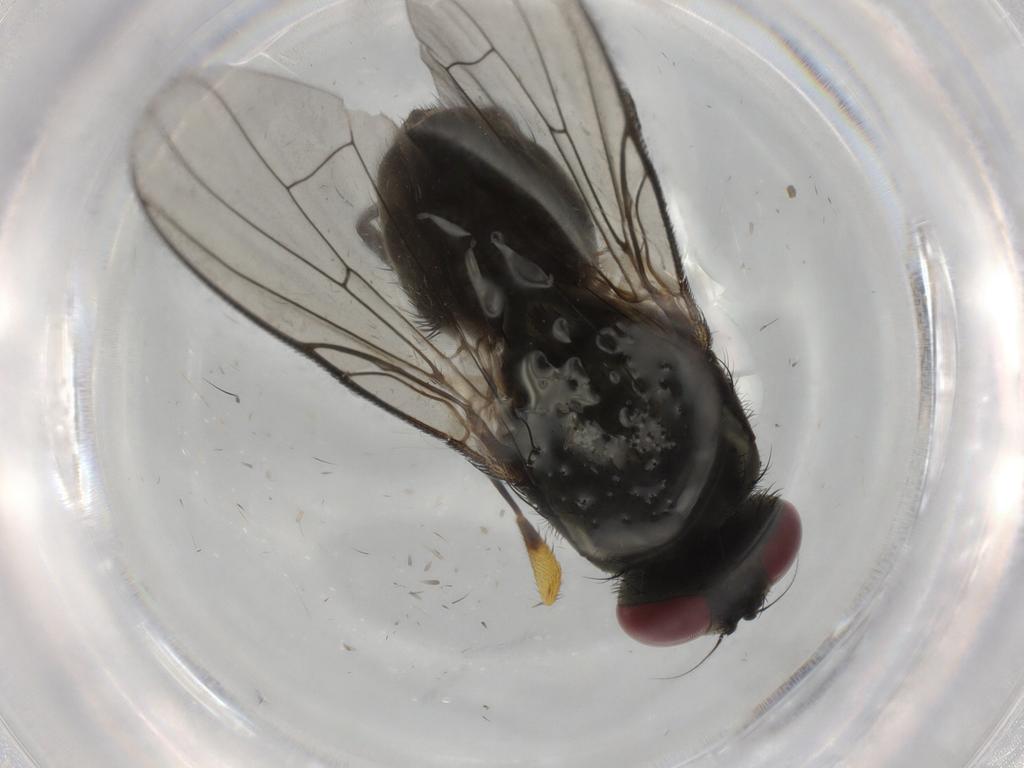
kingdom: Animalia
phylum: Arthropoda
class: Insecta
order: Diptera
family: Muscidae
